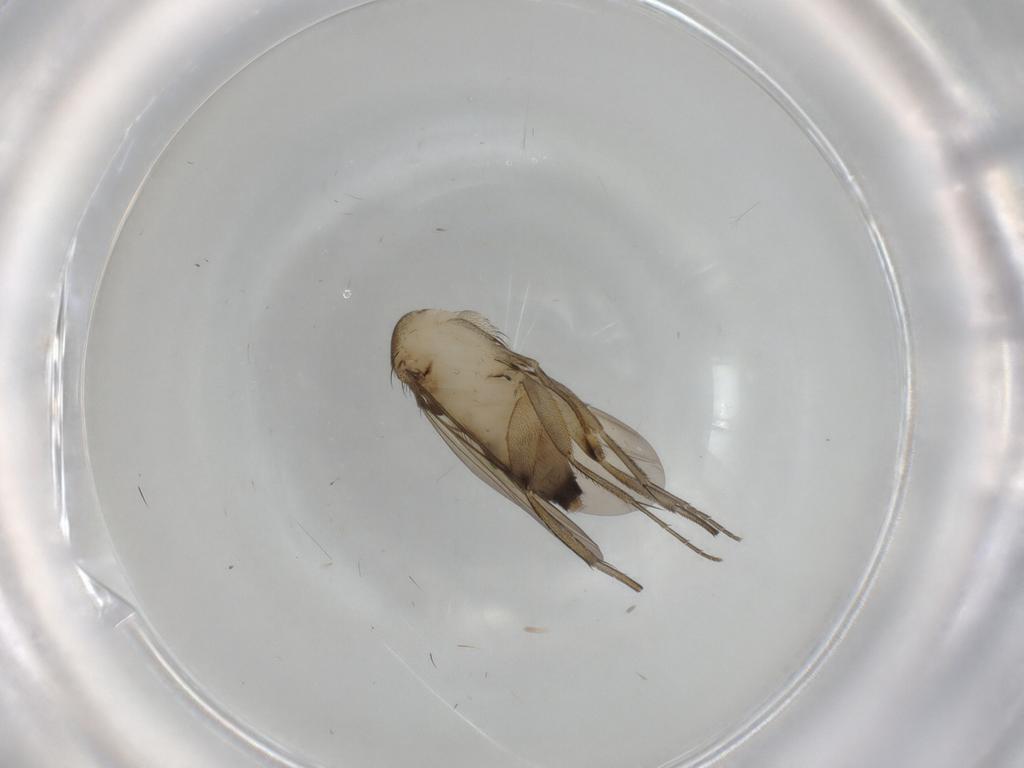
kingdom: Animalia
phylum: Arthropoda
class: Insecta
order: Diptera
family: Phoridae
